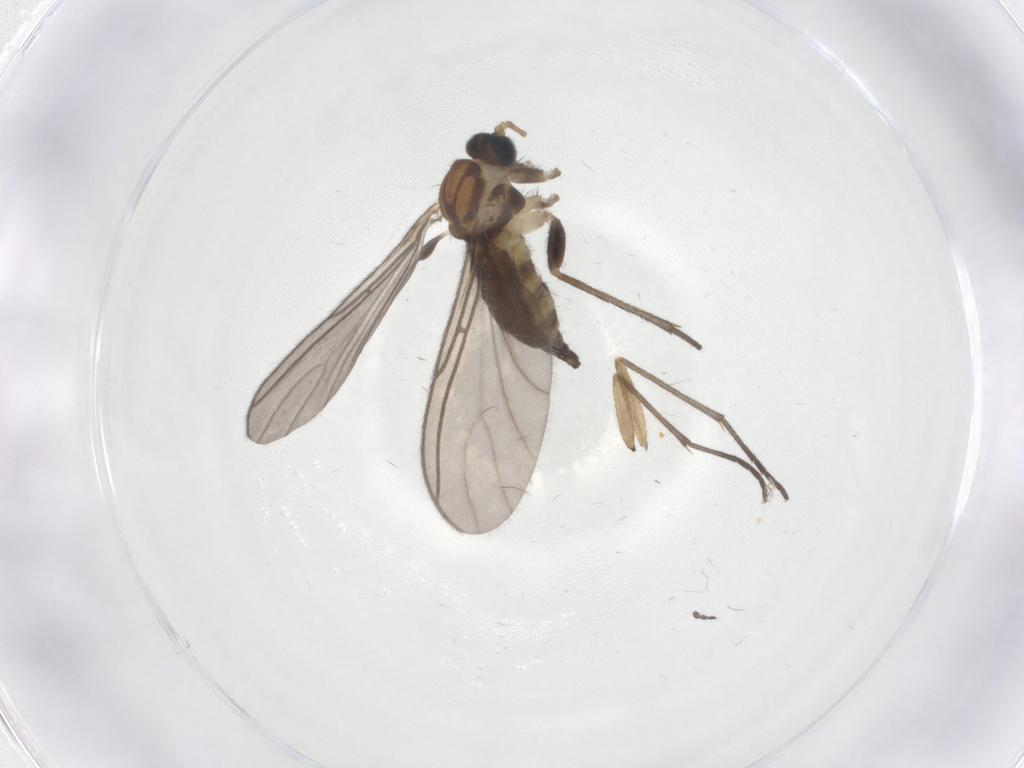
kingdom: Animalia
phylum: Arthropoda
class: Insecta
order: Diptera
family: Sciaridae
